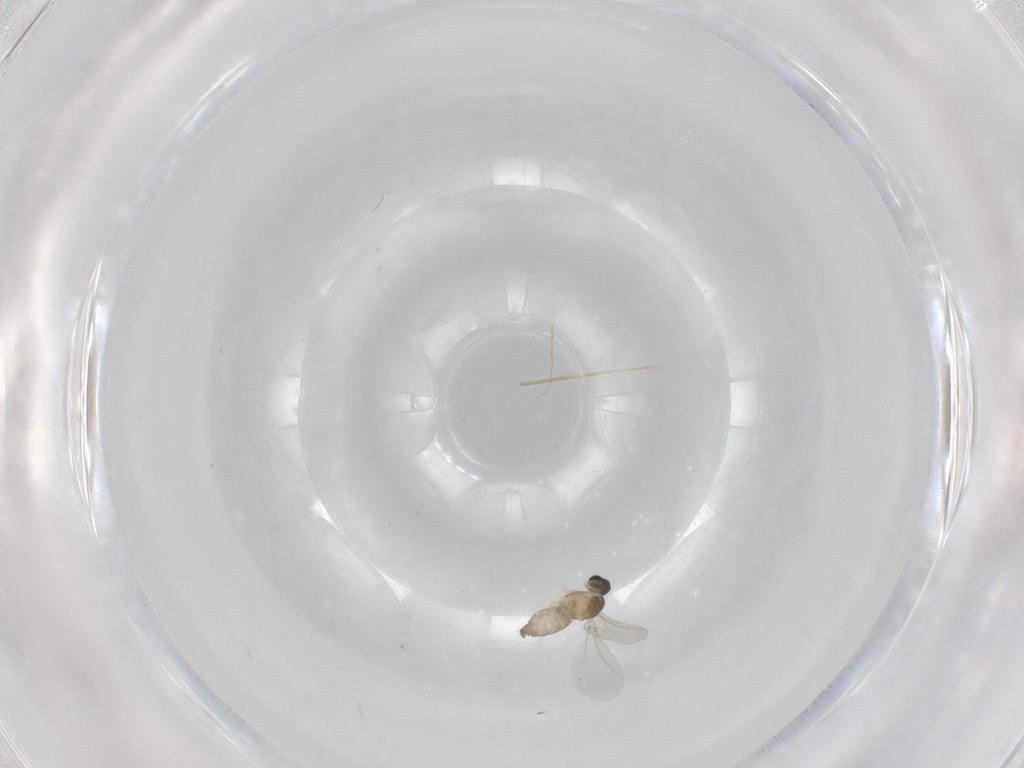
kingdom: Animalia
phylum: Arthropoda
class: Insecta
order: Diptera
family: Cecidomyiidae
